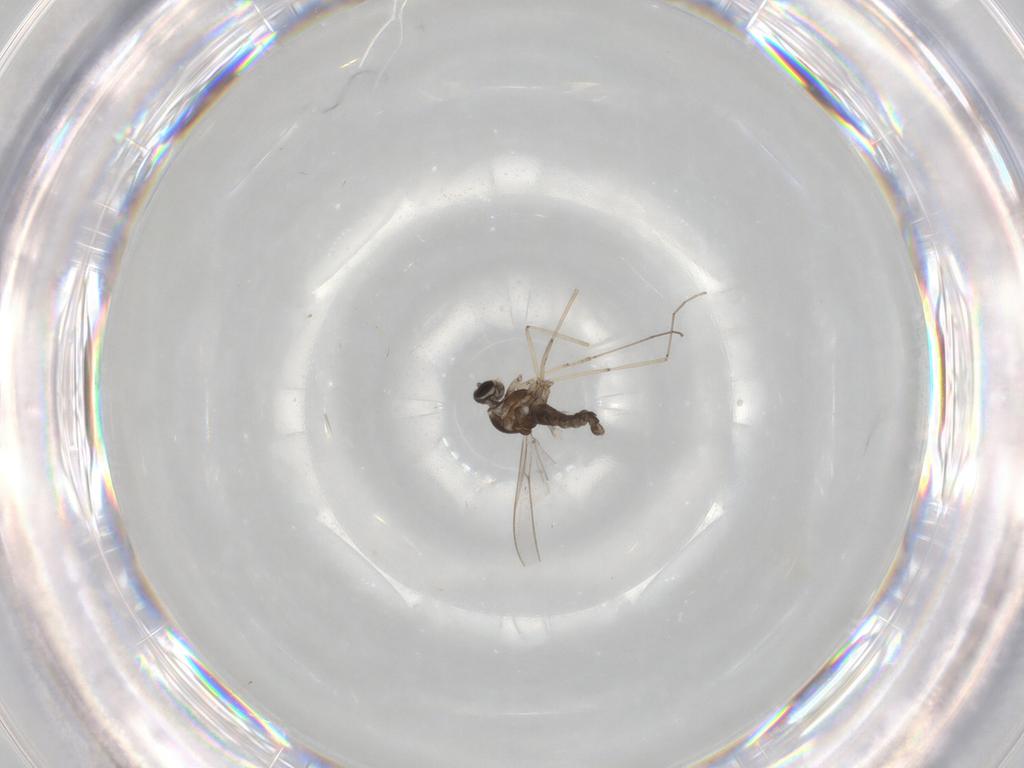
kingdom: Animalia
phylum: Arthropoda
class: Insecta
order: Diptera
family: Cecidomyiidae
